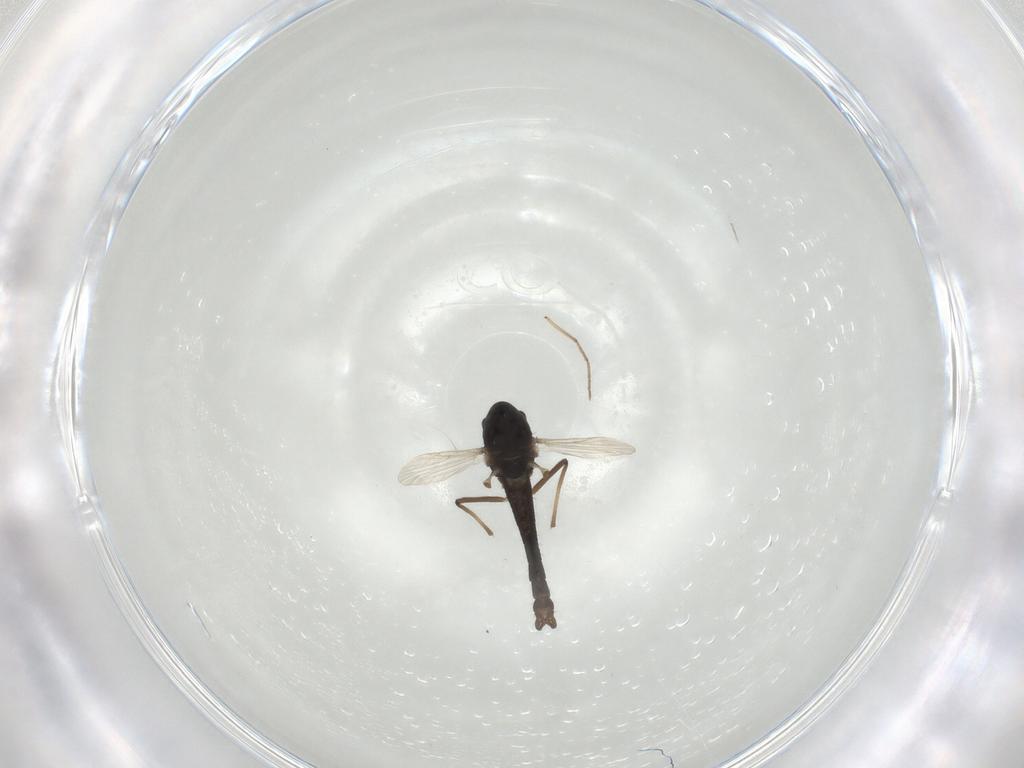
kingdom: Animalia
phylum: Arthropoda
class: Insecta
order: Diptera
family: Chironomidae
